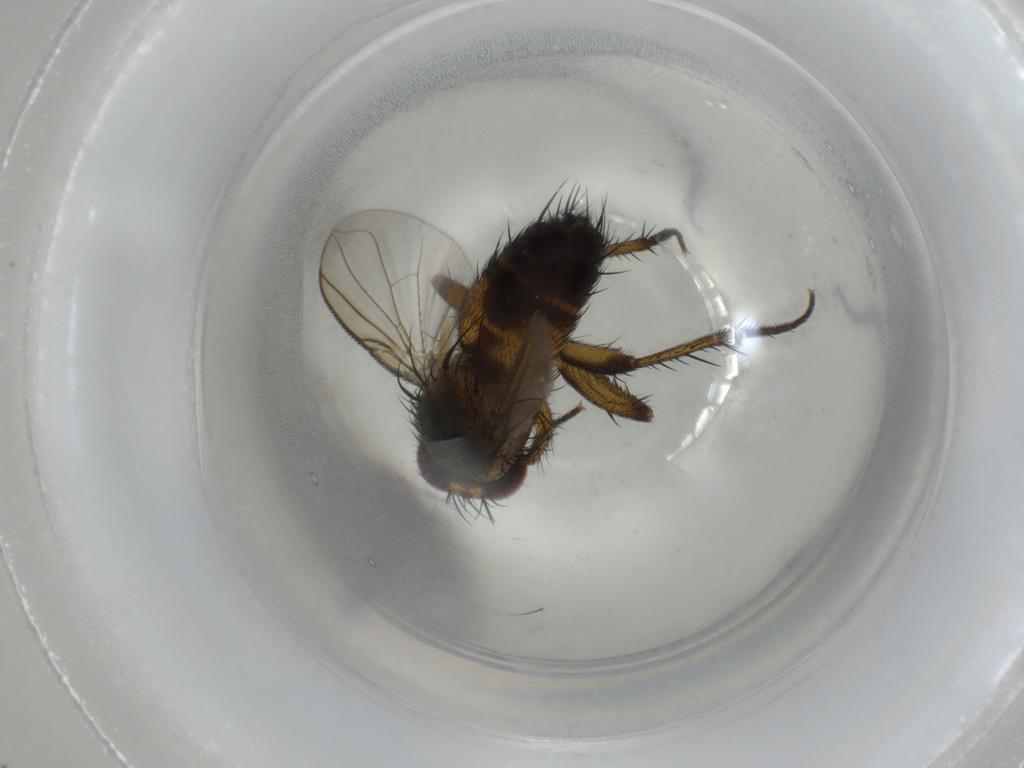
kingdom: Animalia
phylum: Arthropoda
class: Insecta
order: Diptera
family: Tachinidae
